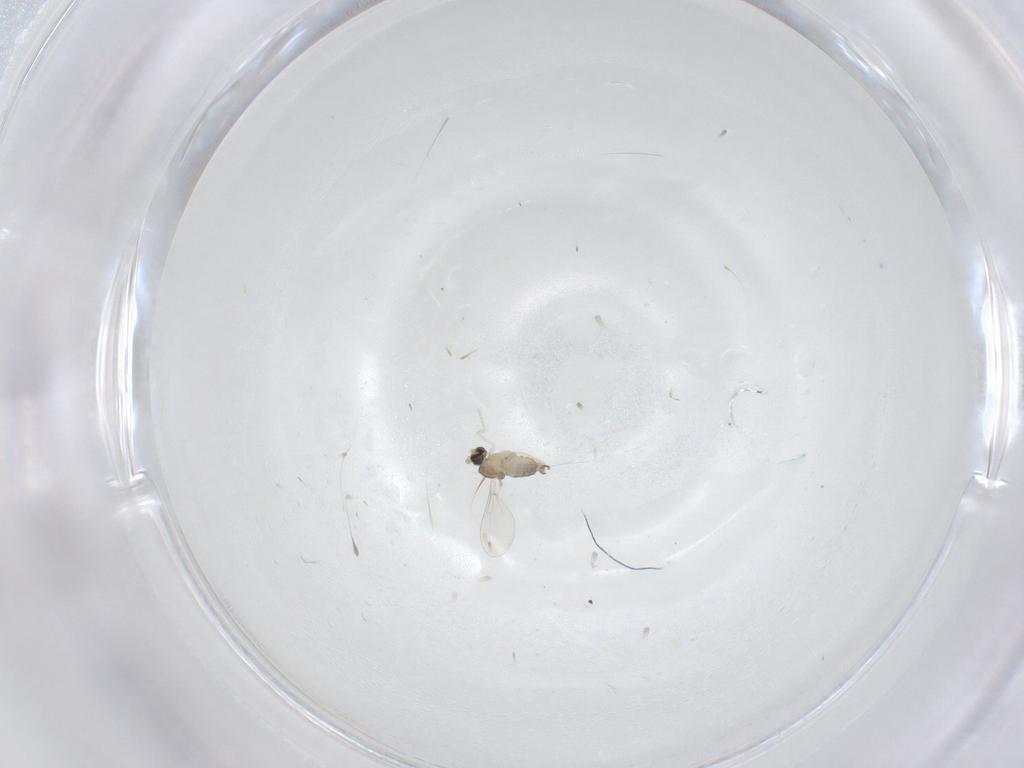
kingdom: Animalia
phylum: Arthropoda
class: Insecta
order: Diptera
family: Cecidomyiidae
